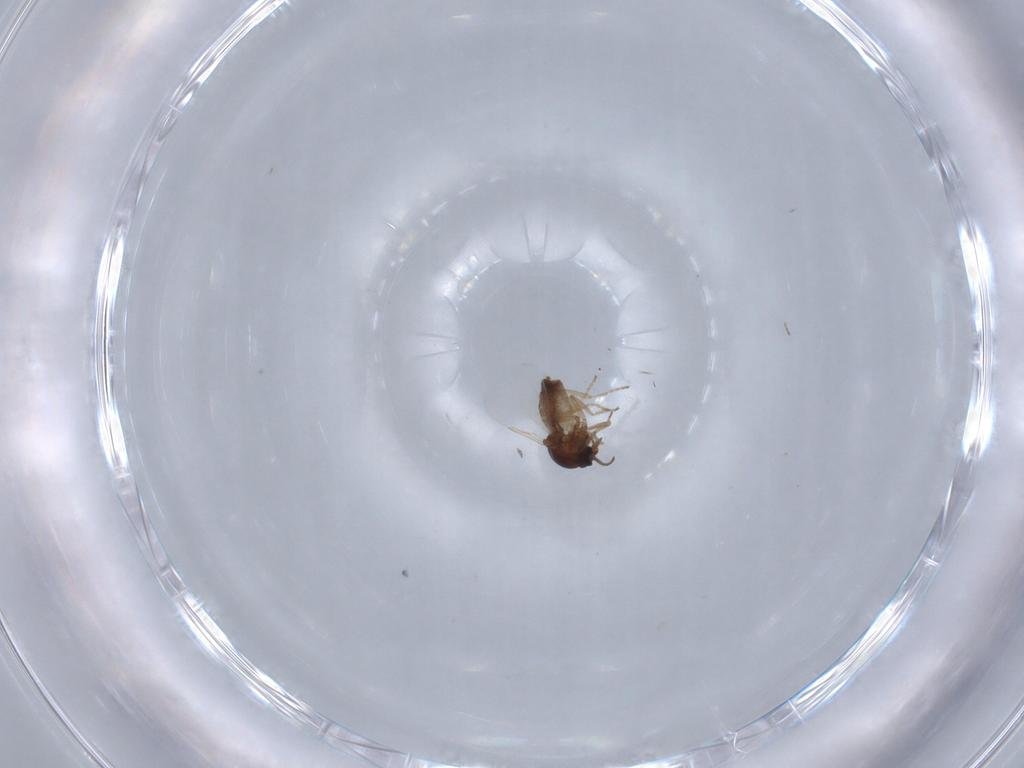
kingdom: Animalia
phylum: Arthropoda
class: Insecta
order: Diptera
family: Ceratopogonidae
